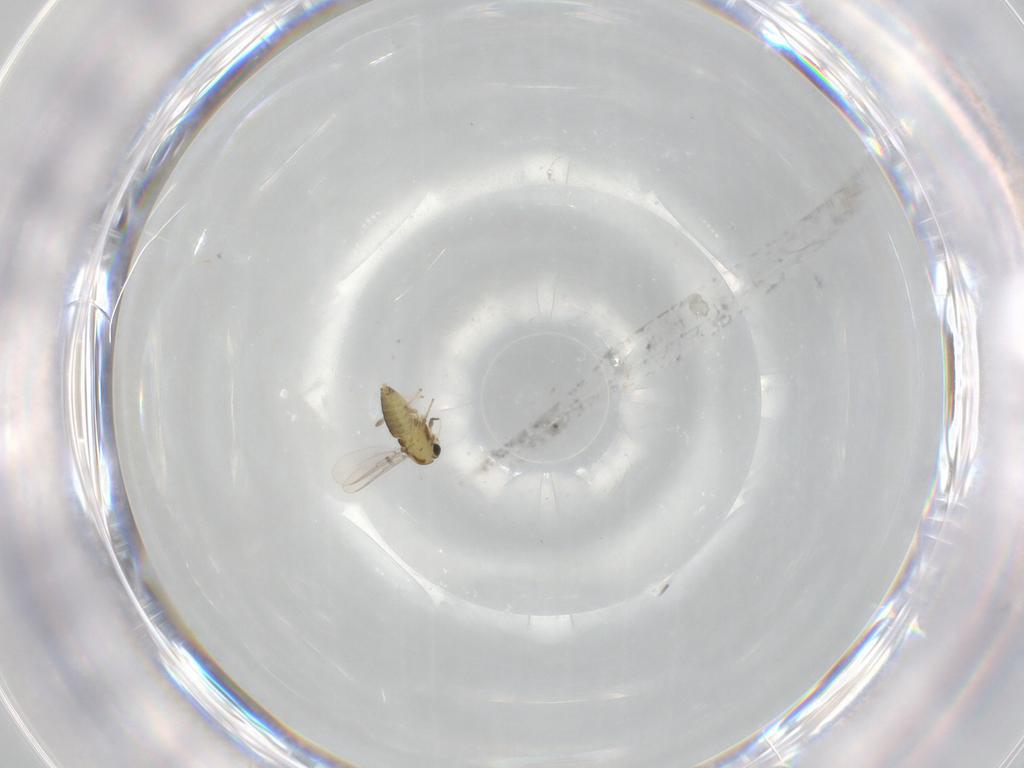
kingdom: Animalia
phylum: Arthropoda
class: Insecta
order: Diptera
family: Chironomidae
